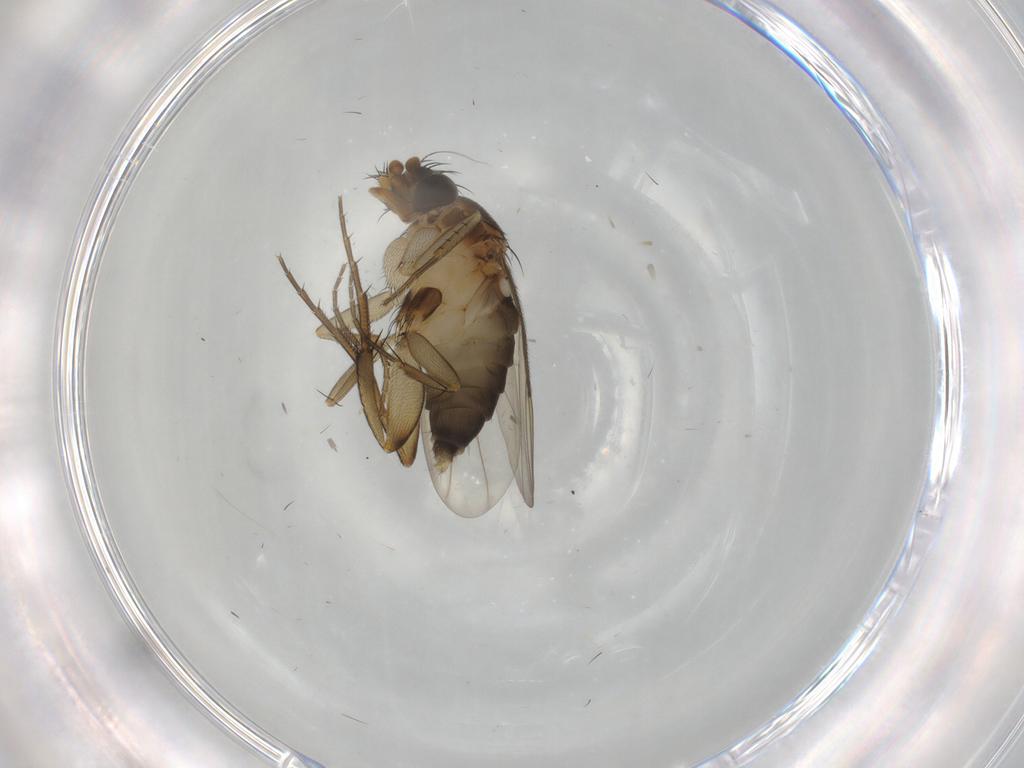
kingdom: Animalia
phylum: Arthropoda
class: Insecta
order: Diptera
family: Sciaridae
